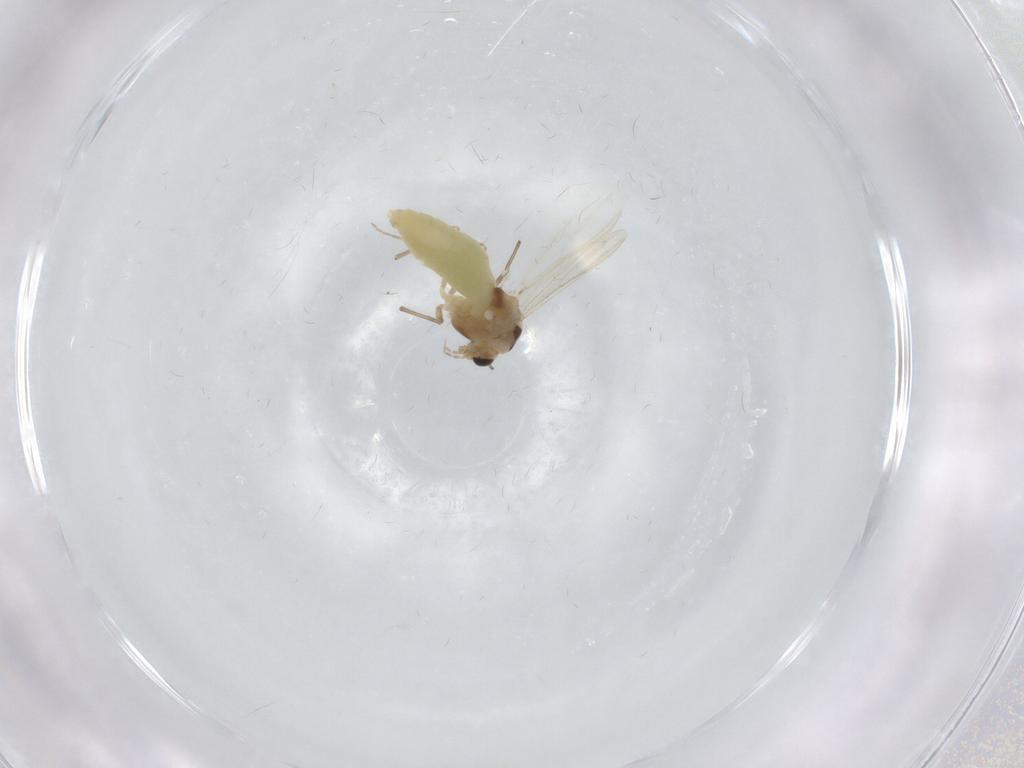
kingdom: Animalia
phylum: Arthropoda
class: Insecta
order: Diptera
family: Chironomidae
